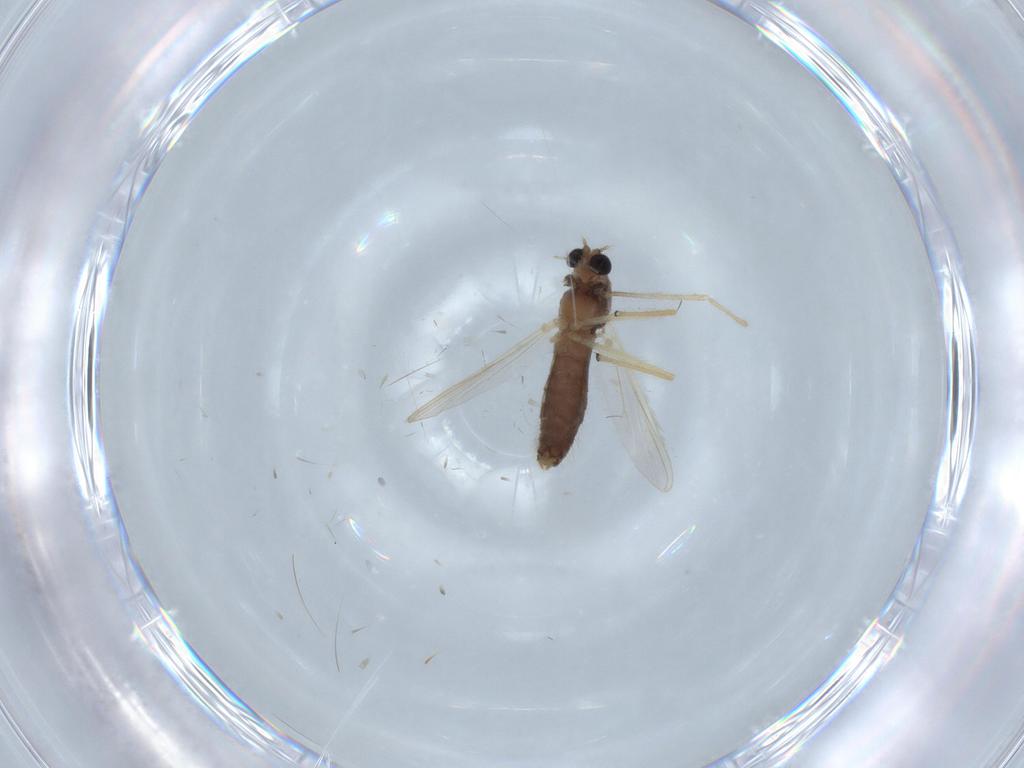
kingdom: Animalia
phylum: Arthropoda
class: Insecta
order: Diptera
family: Chironomidae
